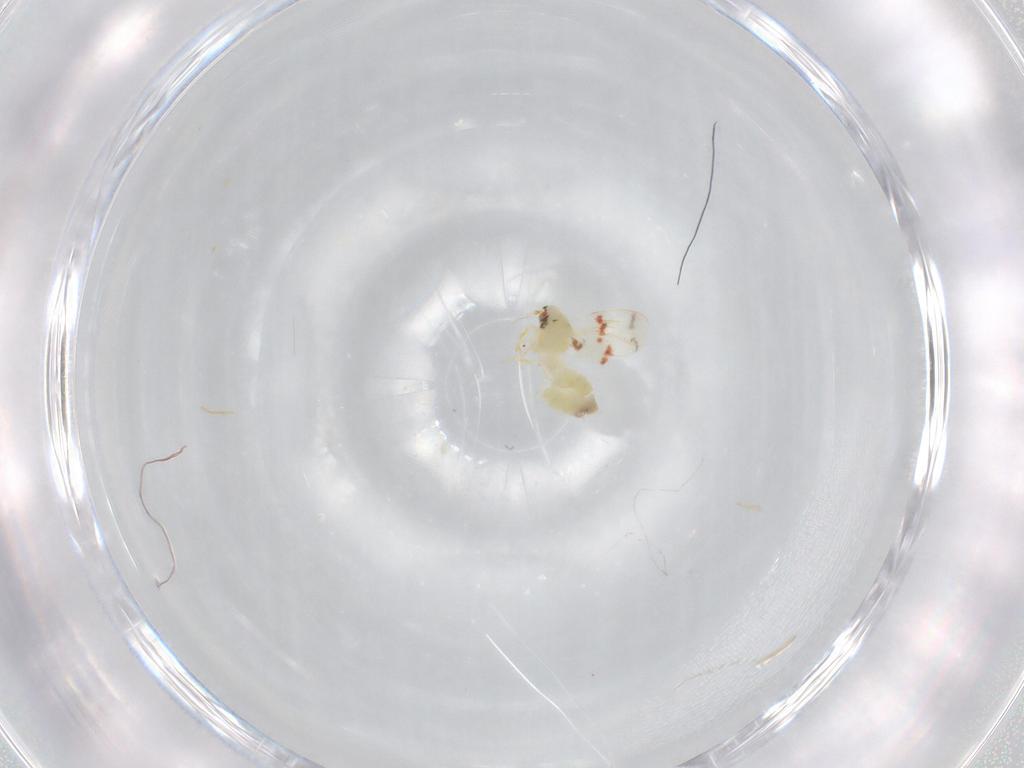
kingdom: Animalia
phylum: Arthropoda
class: Insecta
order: Hemiptera
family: Aleyrodidae
